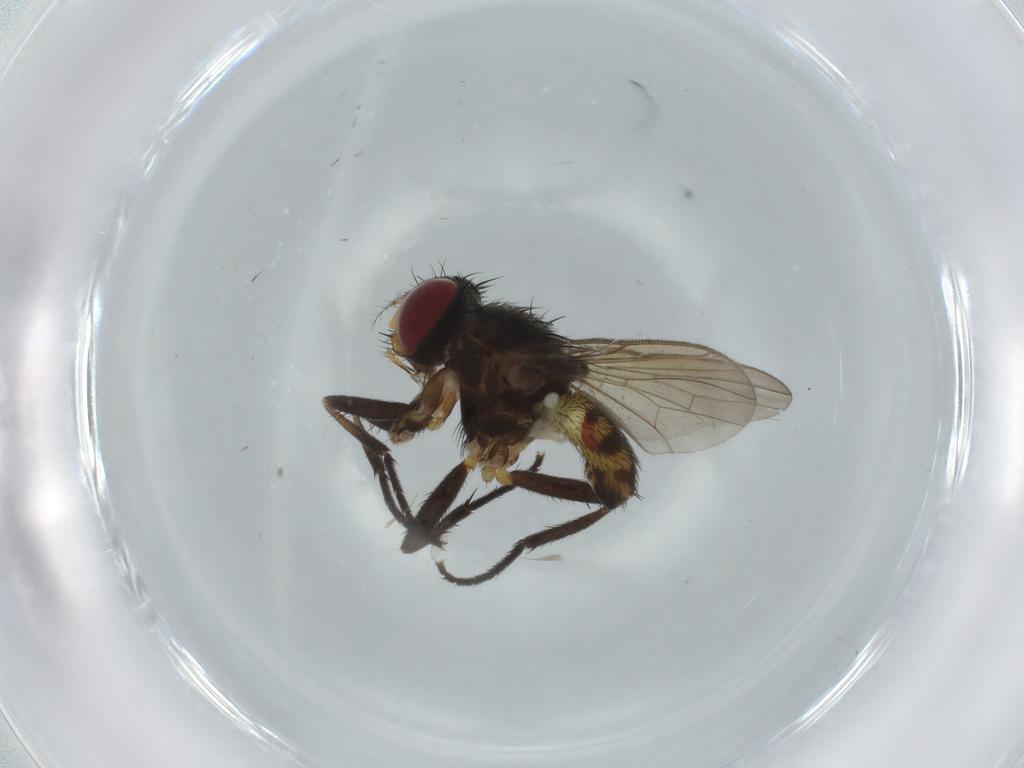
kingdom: Animalia
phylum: Arthropoda
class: Insecta
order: Diptera
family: Anthomyiidae
